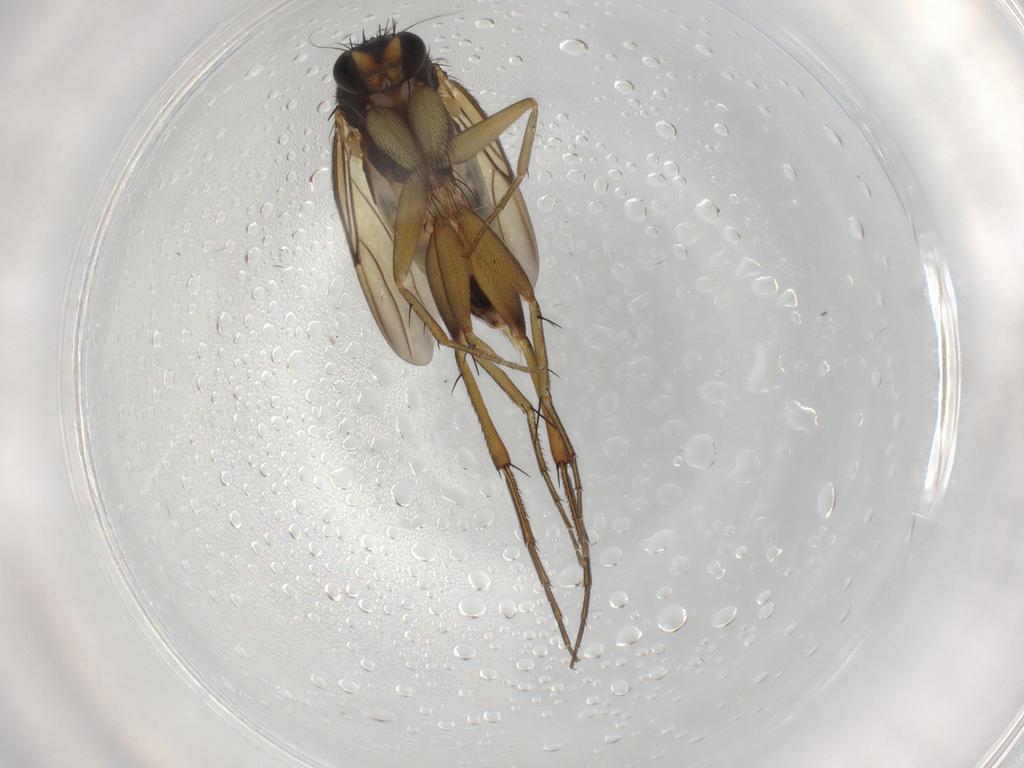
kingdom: Animalia
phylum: Arthropoda
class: Insecta
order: Diptera
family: Phoridae
